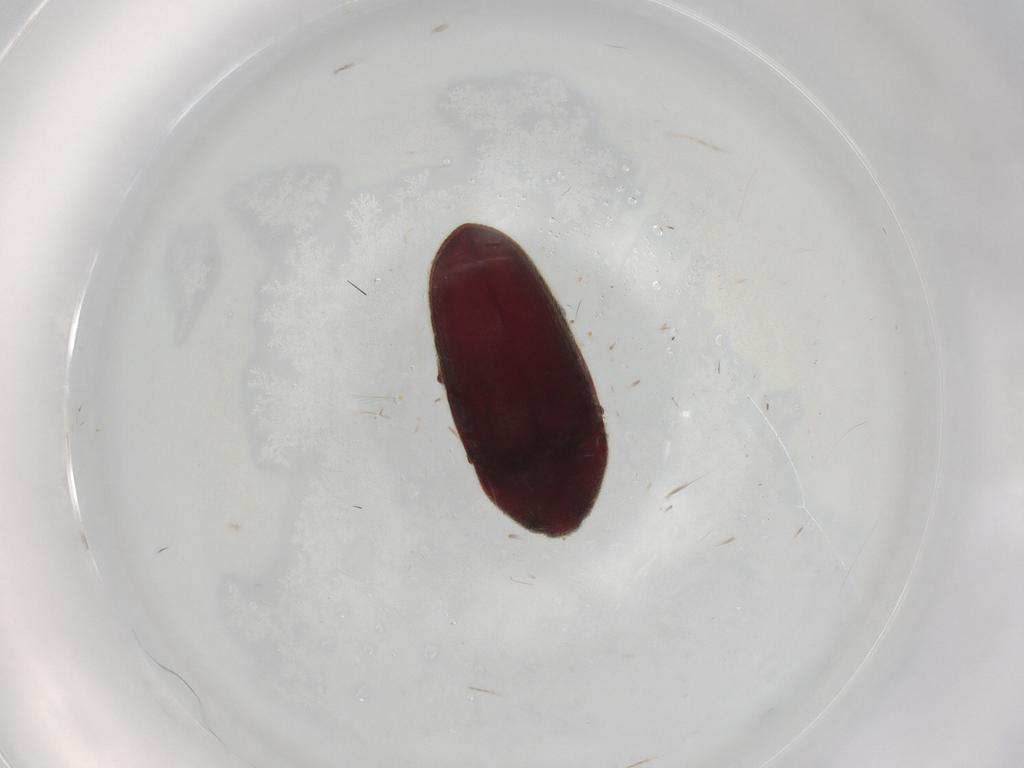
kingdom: Animalia
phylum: Arthropoda
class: Insecta
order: Coleoptera
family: Throscidae
